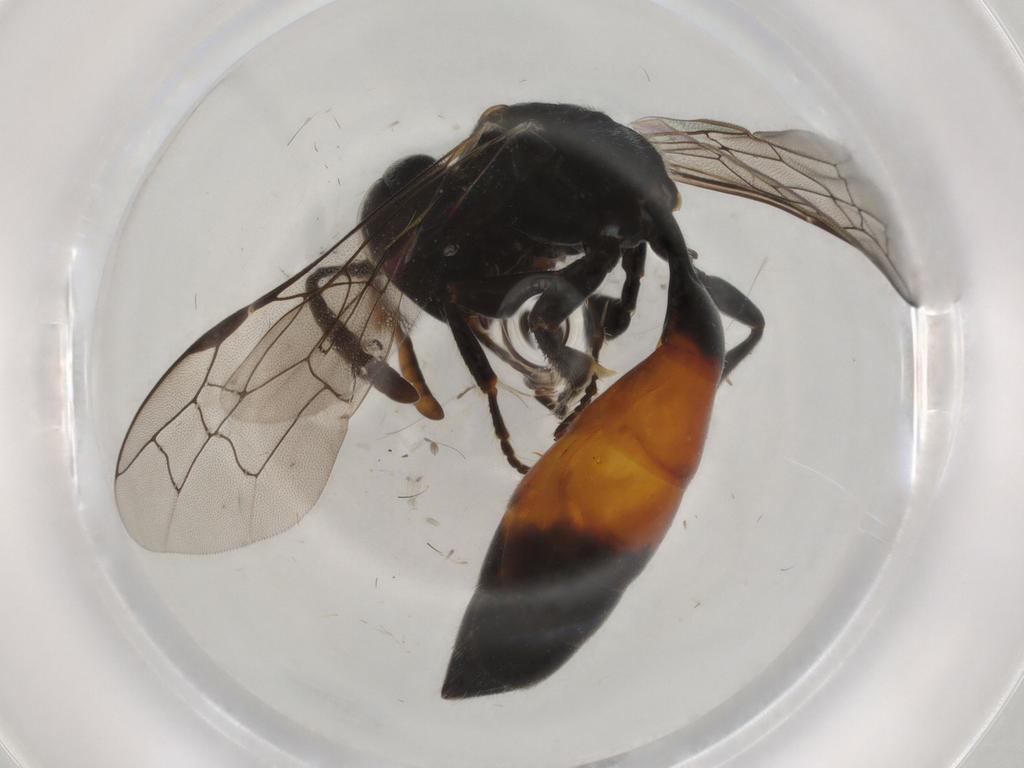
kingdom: Animalia
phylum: Arthropoda
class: Insecta
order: Hymenoptera
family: Psenidae
